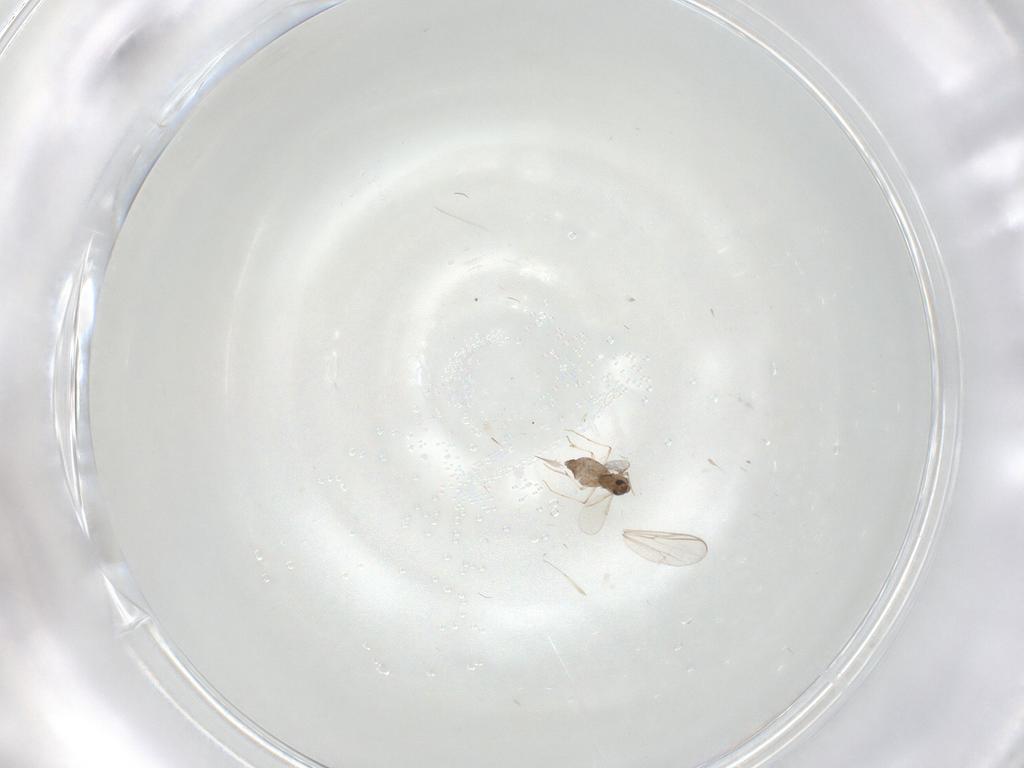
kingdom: Animalia
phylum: Arthropoda
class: Insecta
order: Diptera
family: Chironomidae
